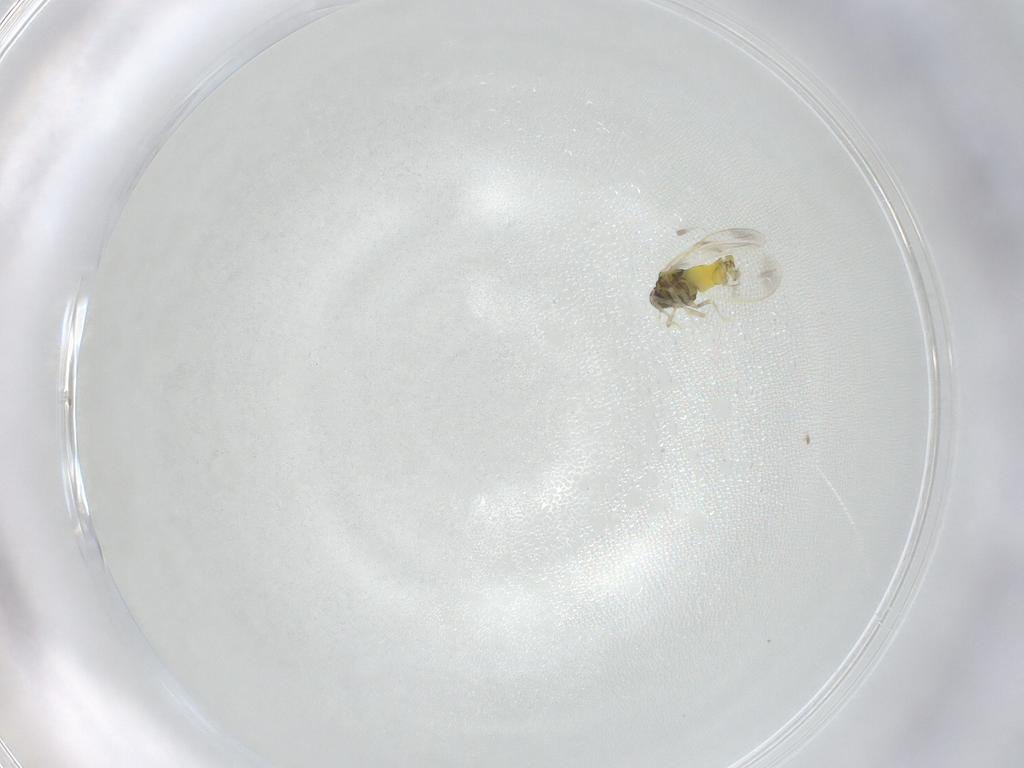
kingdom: Animalia
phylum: Arthropoda
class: Insecta
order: Hemiptera
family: Aleyrodidae
